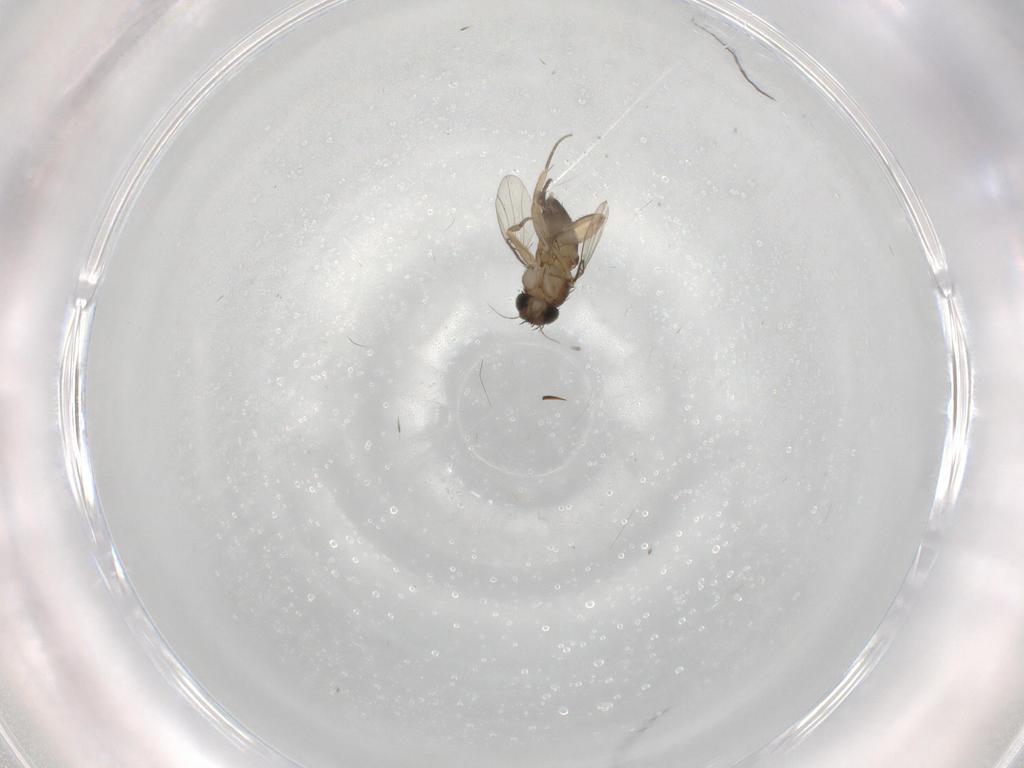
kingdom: Animalia
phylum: Arthropoda
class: Insecta
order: Diptera
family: Phoridae
